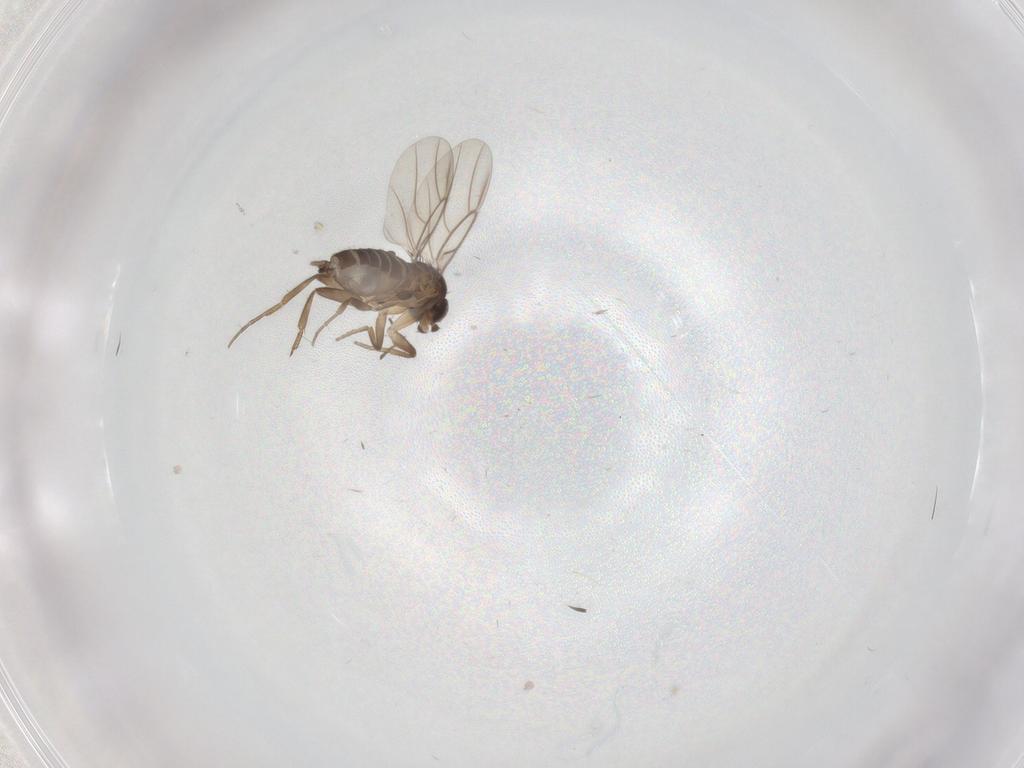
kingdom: Animalia
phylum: Arthropoda
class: Insecta
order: Diptera
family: Chironomidae
